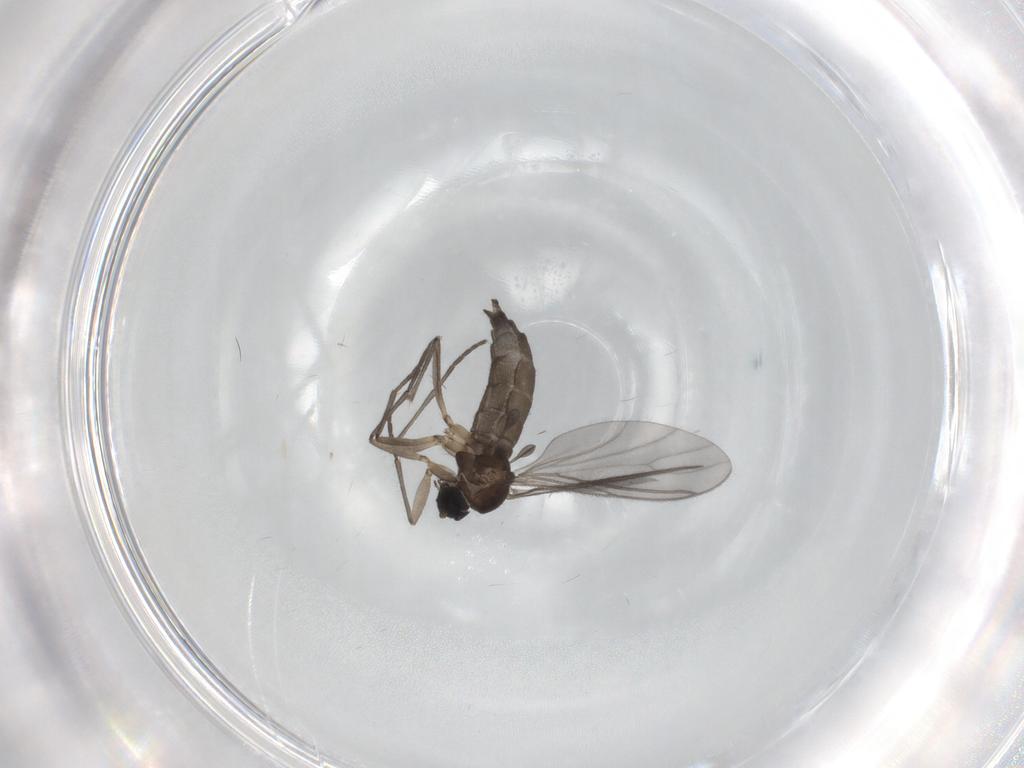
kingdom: Animalia
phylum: Arthropoda
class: Insecta
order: Diptera
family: Sciaridae
